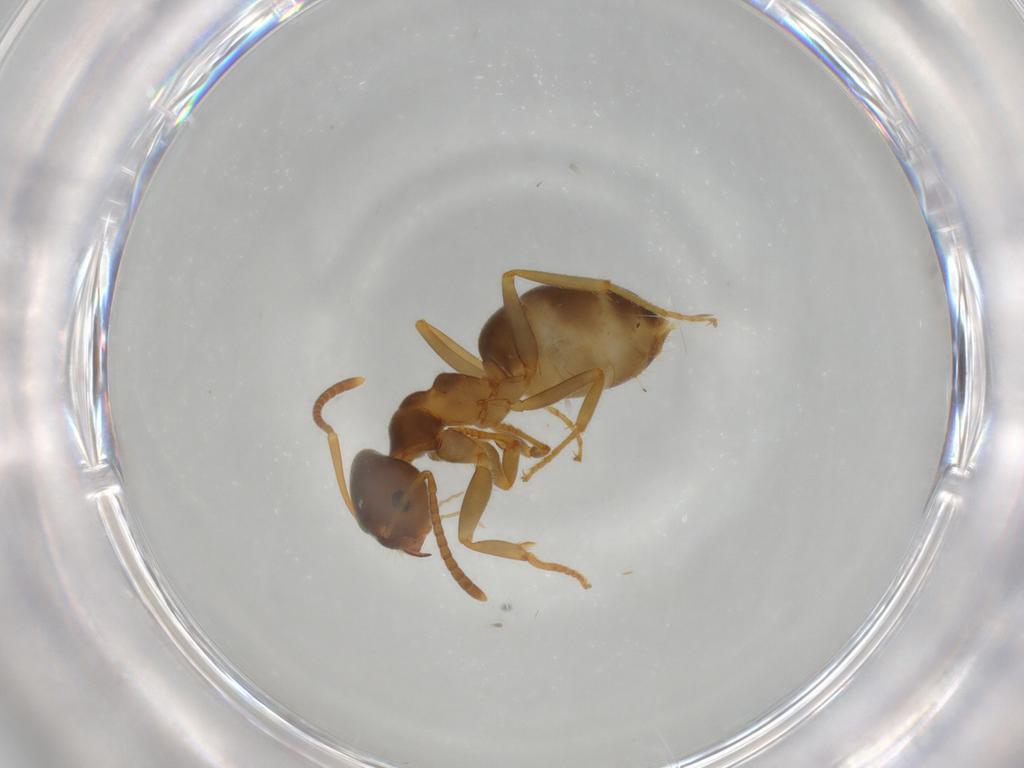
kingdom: Animalia
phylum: Arthropoda
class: Insecta
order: Hymenoptera
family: Formicidae
